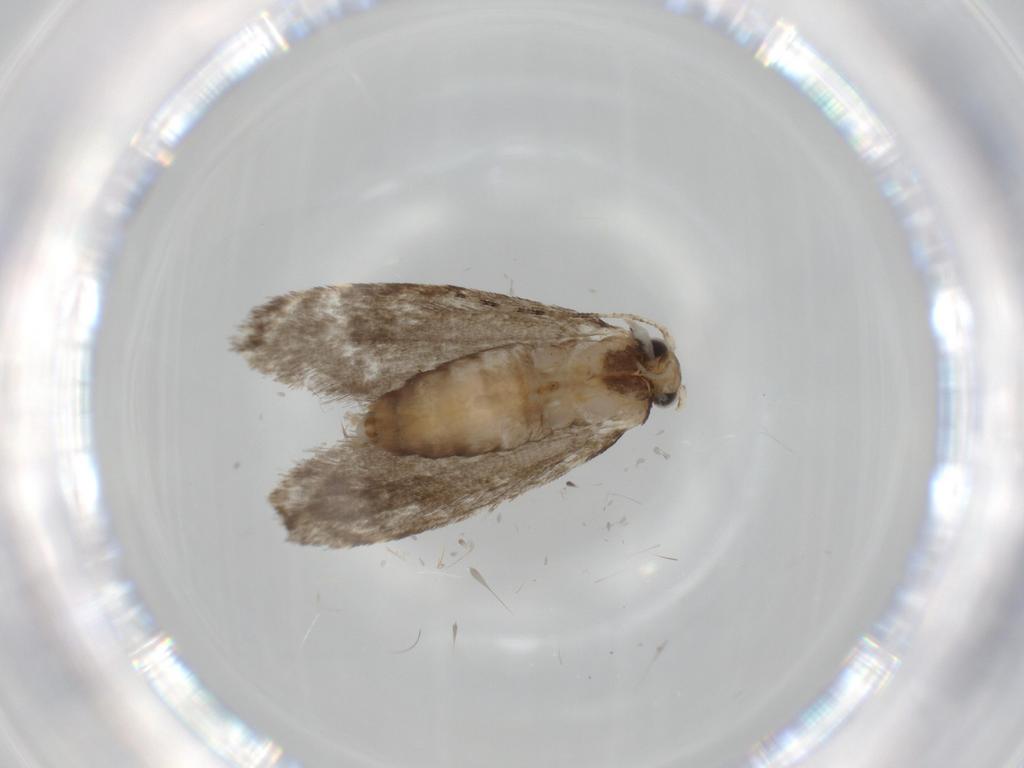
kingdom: Animalia
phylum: Arthropoda
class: Insecta
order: Lepidoptera
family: Tineidae
